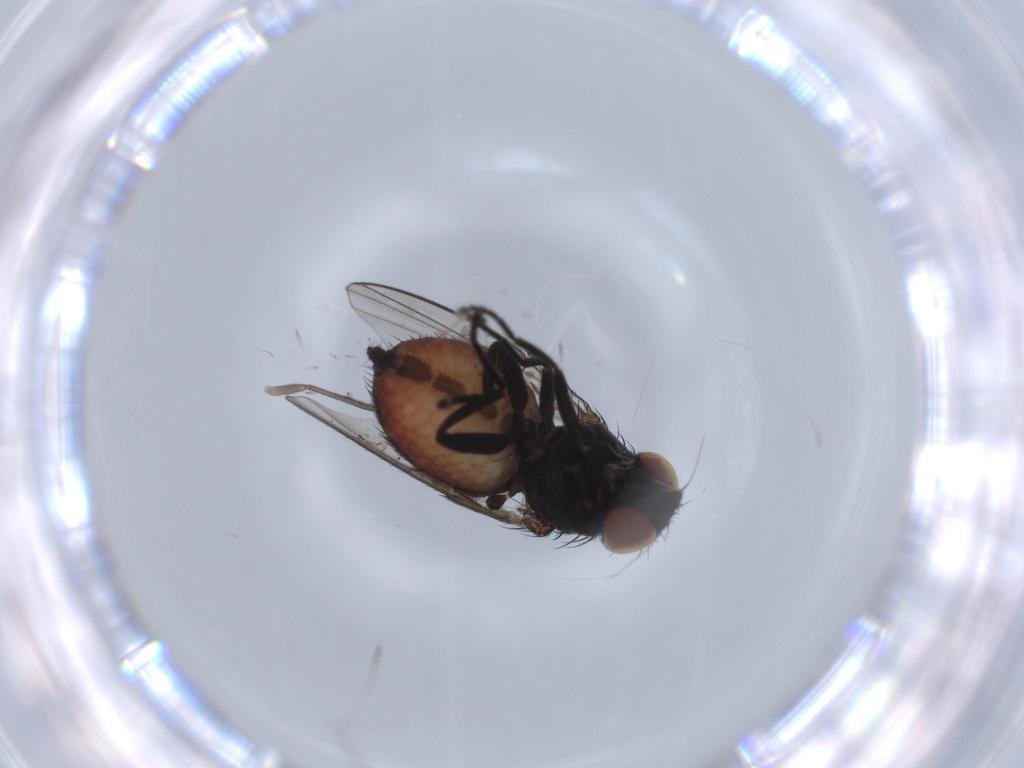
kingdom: Animalia
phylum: Arthropoda
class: Insecta
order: Diptera
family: Milichiidae
